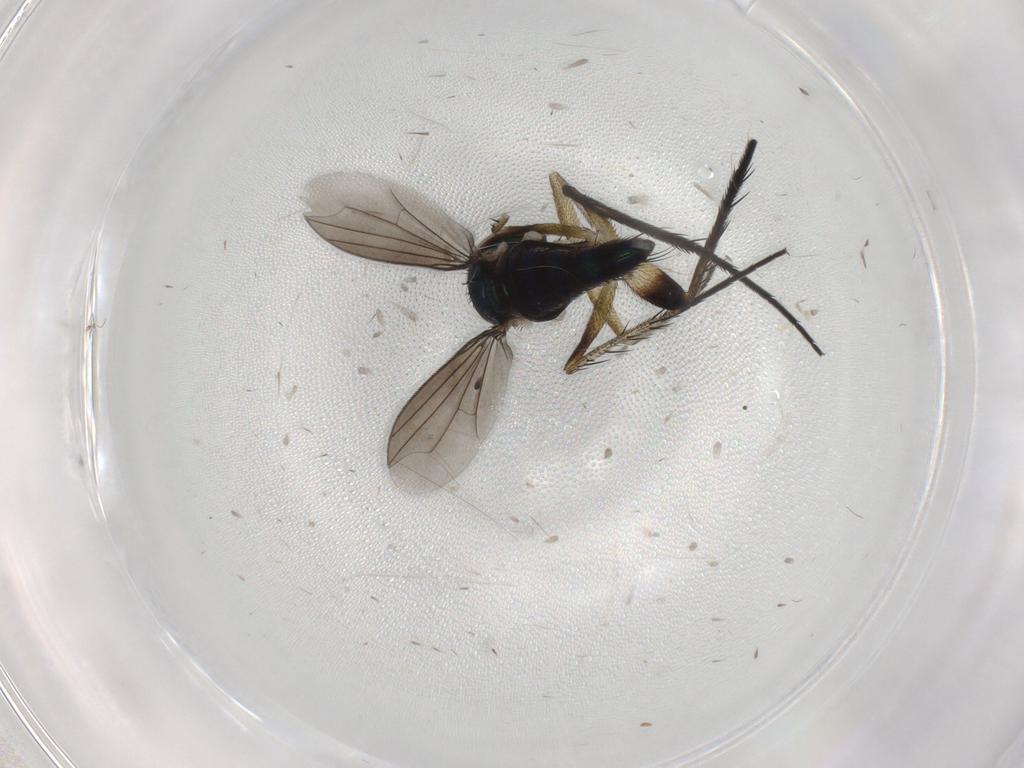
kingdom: Animalia
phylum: Arthropoda
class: Insecta
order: Diptera
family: Dolichopodidae
